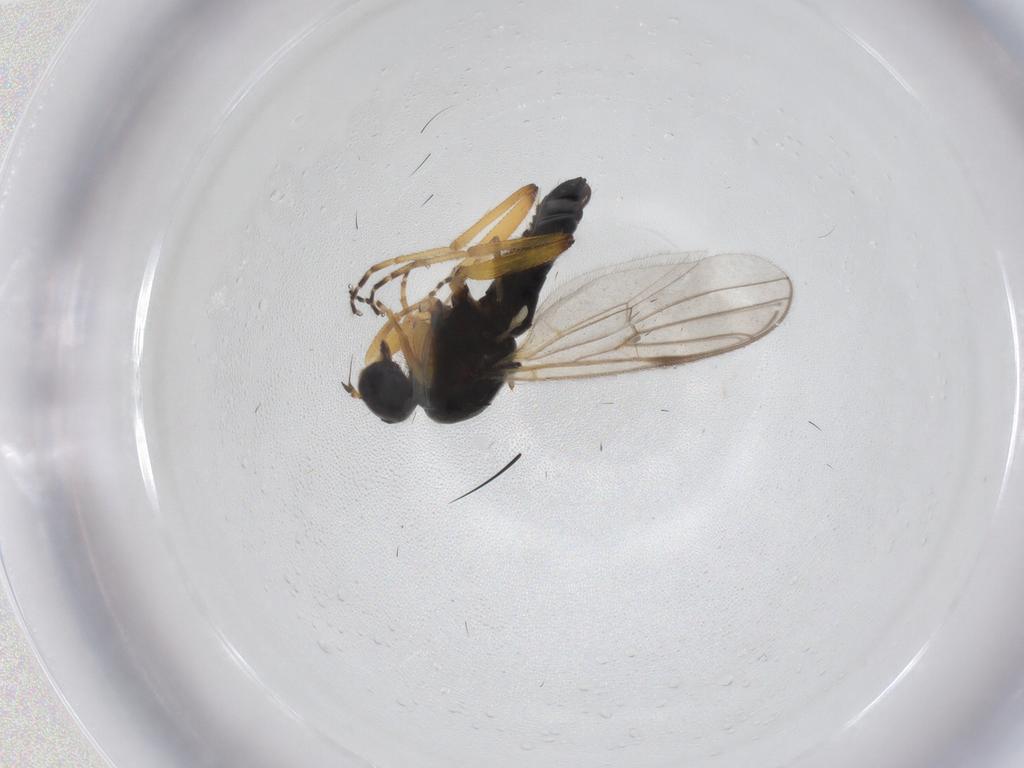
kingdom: Animalia
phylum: Arthropoda
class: Insecta
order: Diptera
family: Hybotidae
